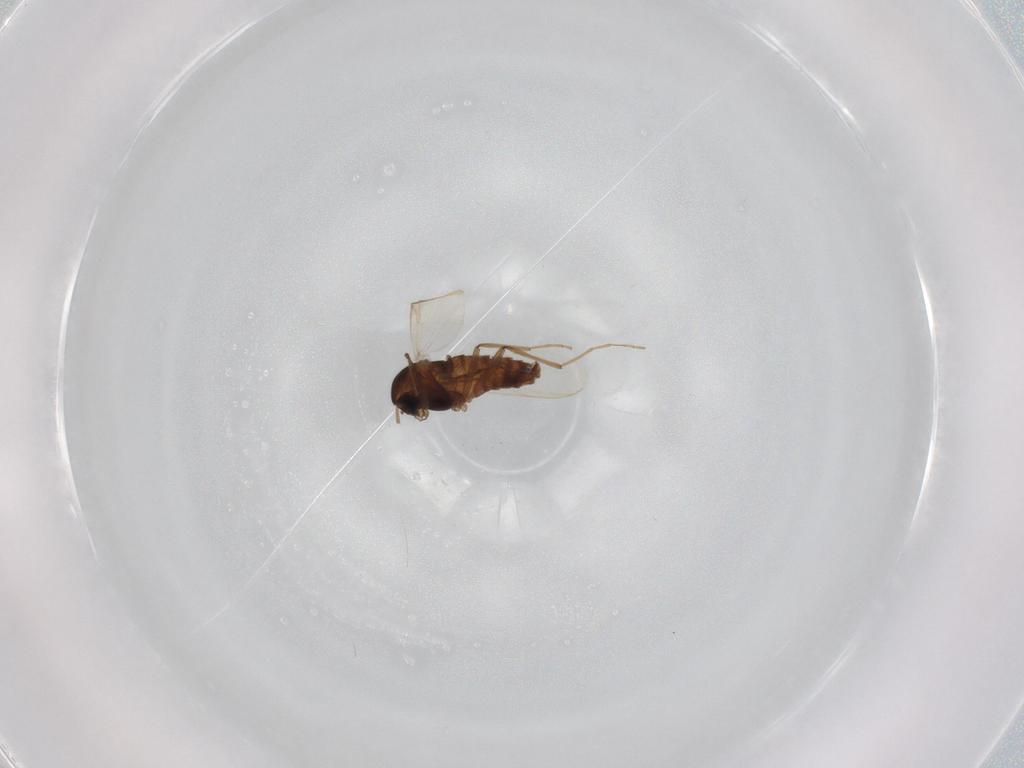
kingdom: Animalia
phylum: Arthropoda
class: Insecta
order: Diptera
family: Chironomidae
